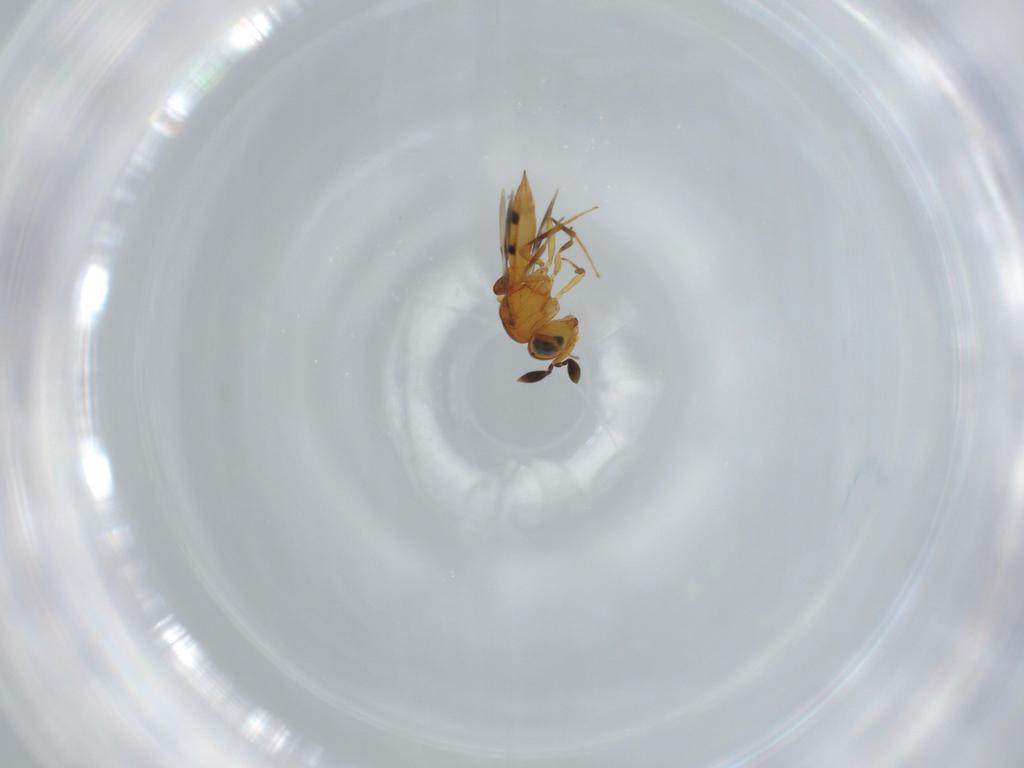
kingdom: Animalia
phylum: Arthropoda
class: Insecta
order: Hymenoptera
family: Scelionidae
